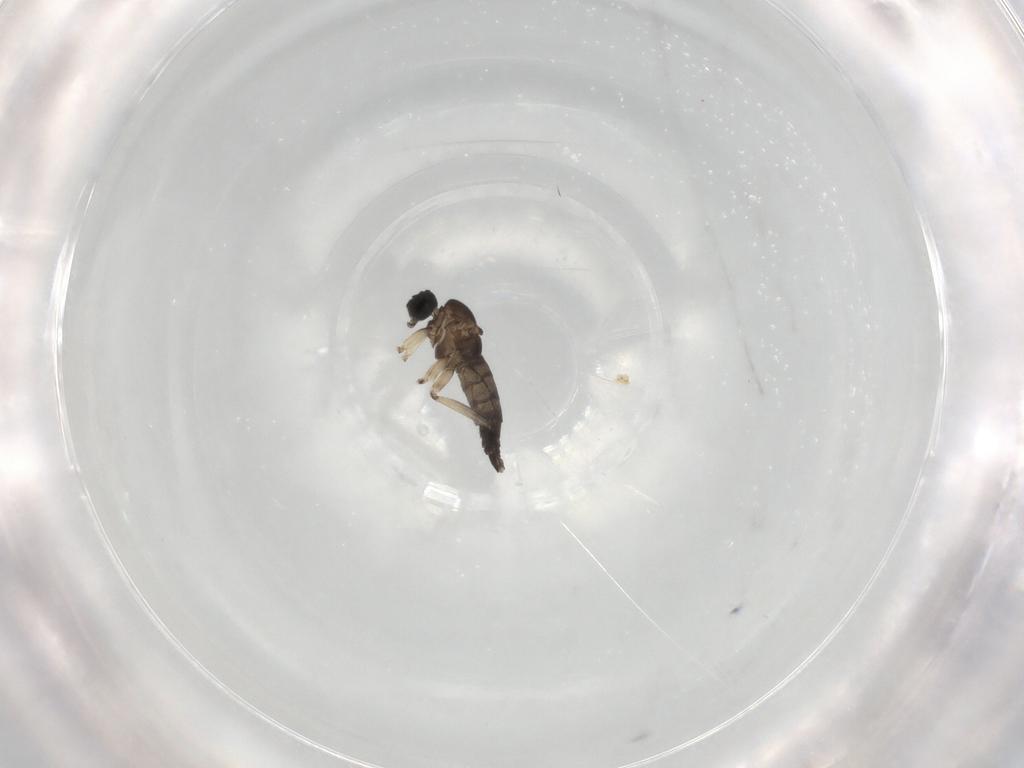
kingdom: Animalia
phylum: Arthropoda
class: Insecta
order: Diptera
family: Sciaridae
